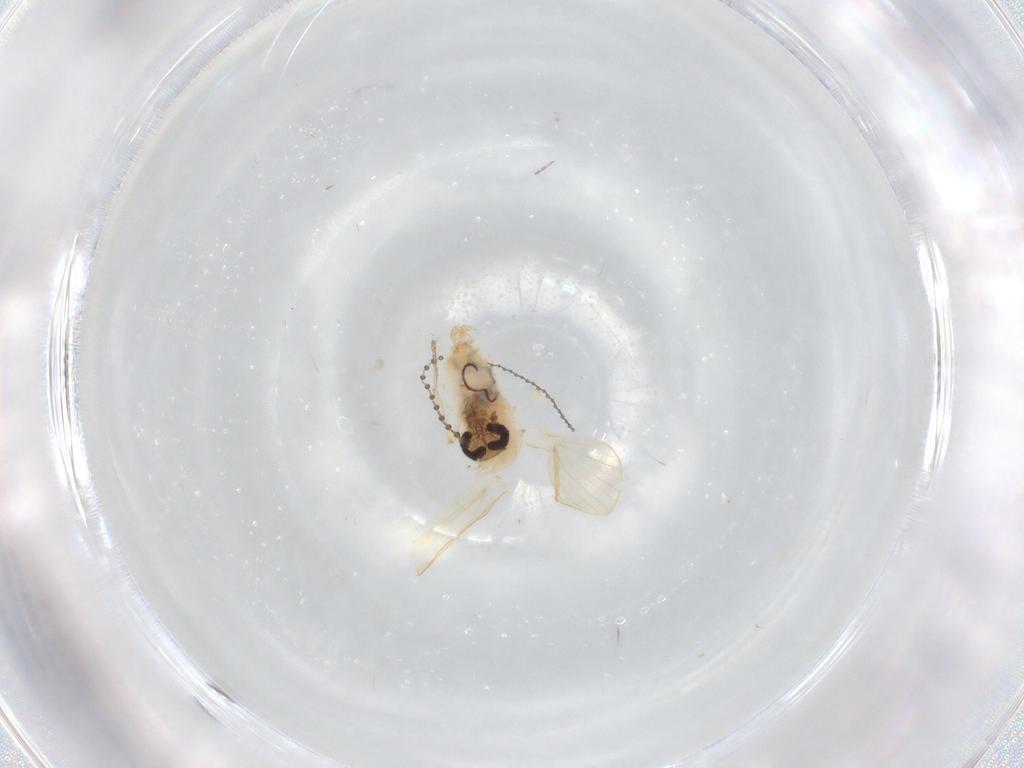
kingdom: Animalia
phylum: Arthropoda
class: Insecta
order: Diptera
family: Psychodidae
